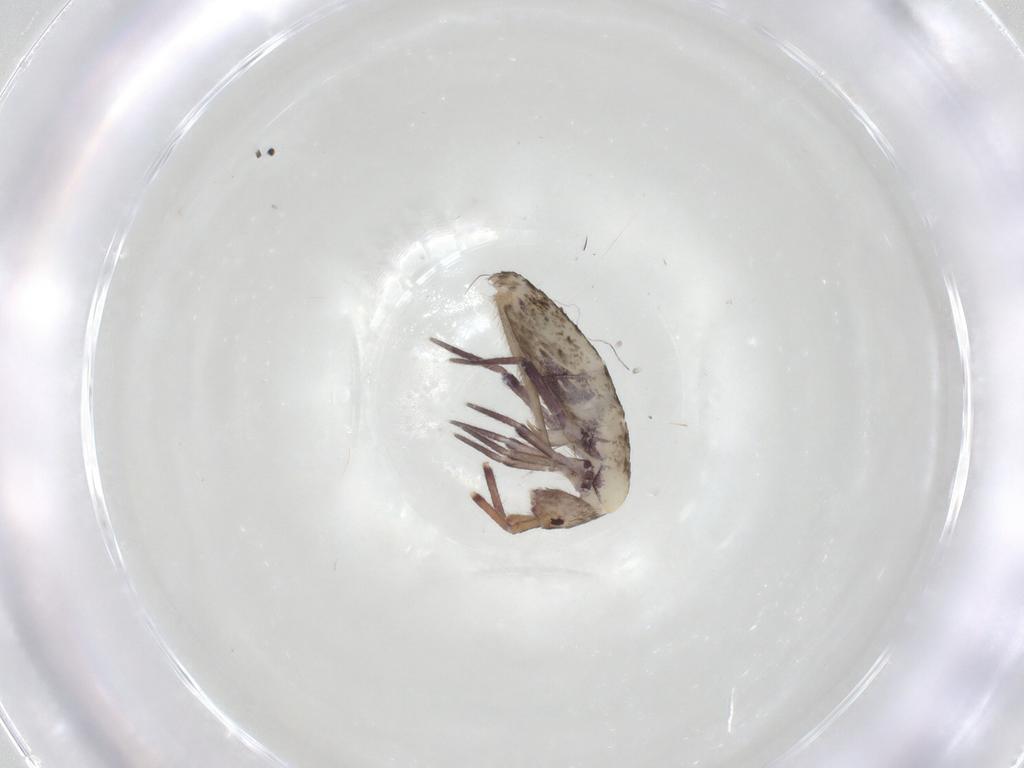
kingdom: Animalia
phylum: Arthropoda
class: Collembola
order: Entomobryomorpha
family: Entomobryidae
